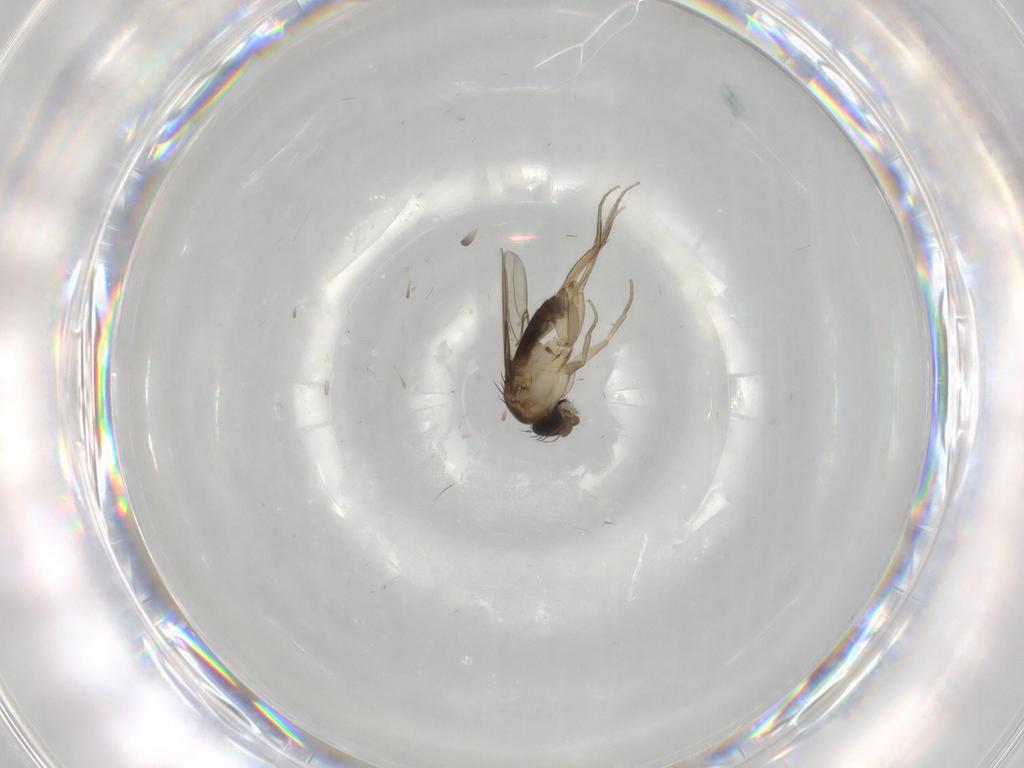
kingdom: Animalia
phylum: Arthropoda
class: Insecta
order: Diptera
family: Phoridae
